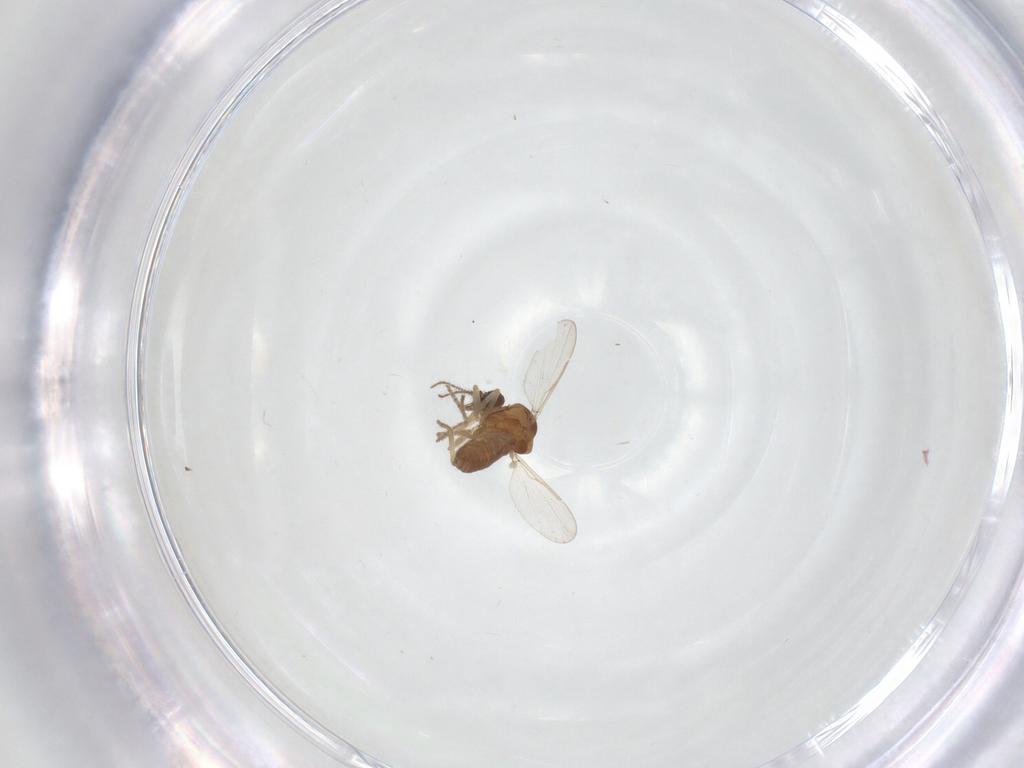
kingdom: Animalia
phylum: Arthropoda
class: Insecta
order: Diptera
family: Ceratopogonidae
